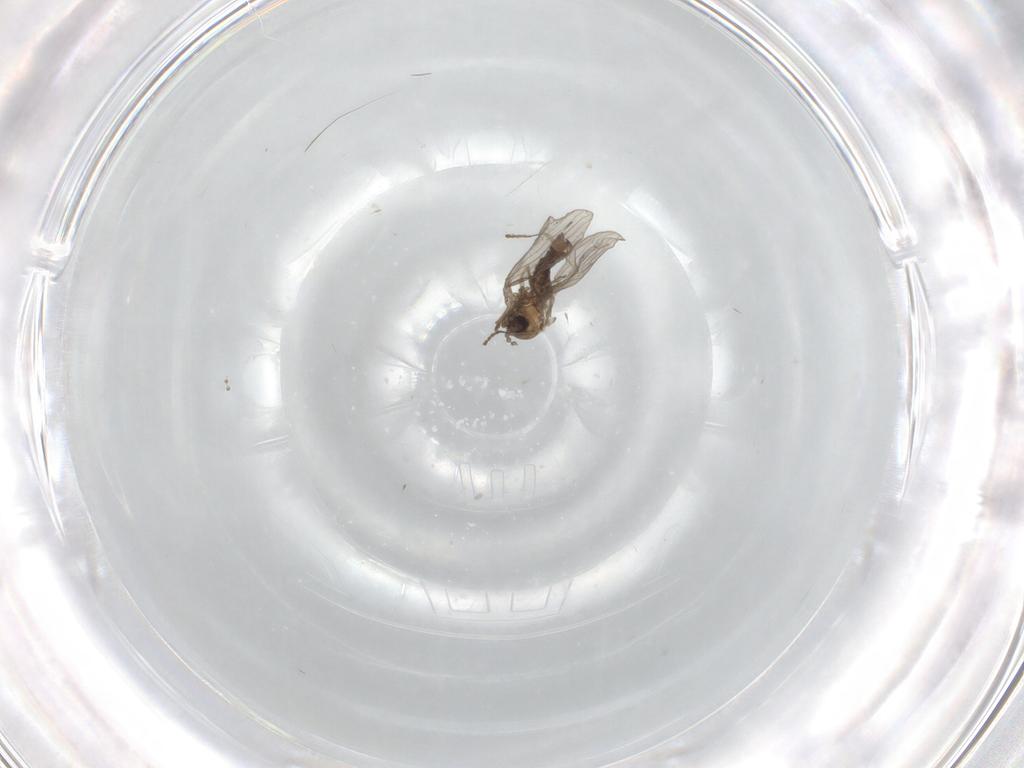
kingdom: Animalia
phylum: Arthropoda
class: Insecta
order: Diptera
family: Psychodidae
